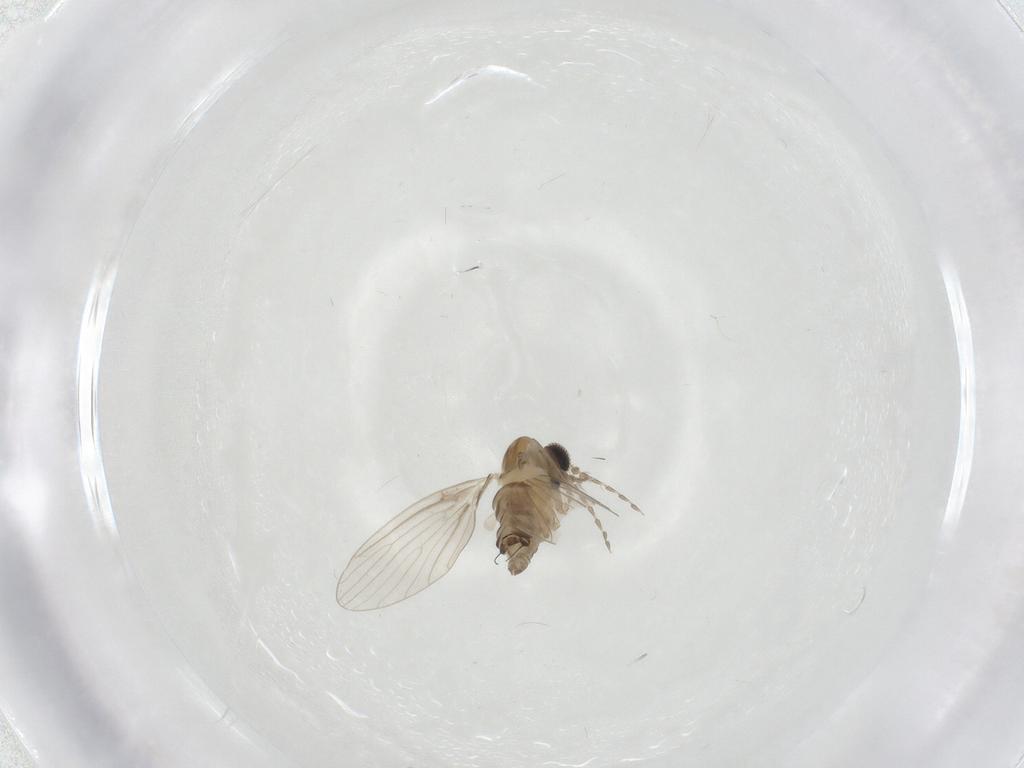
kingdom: Animalia
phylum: Arthropoda
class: Insecta
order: Diptera
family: Psychodidae
